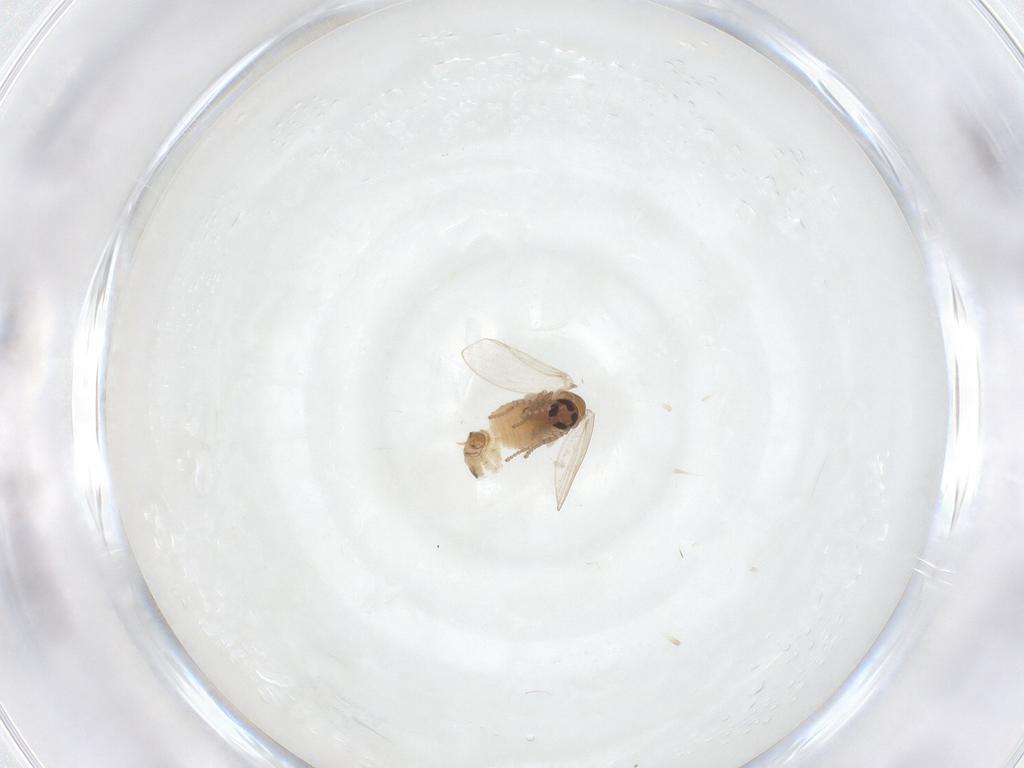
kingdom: Animalia
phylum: Arthropoda
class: Insecta
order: Diptera
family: Psychodidae
